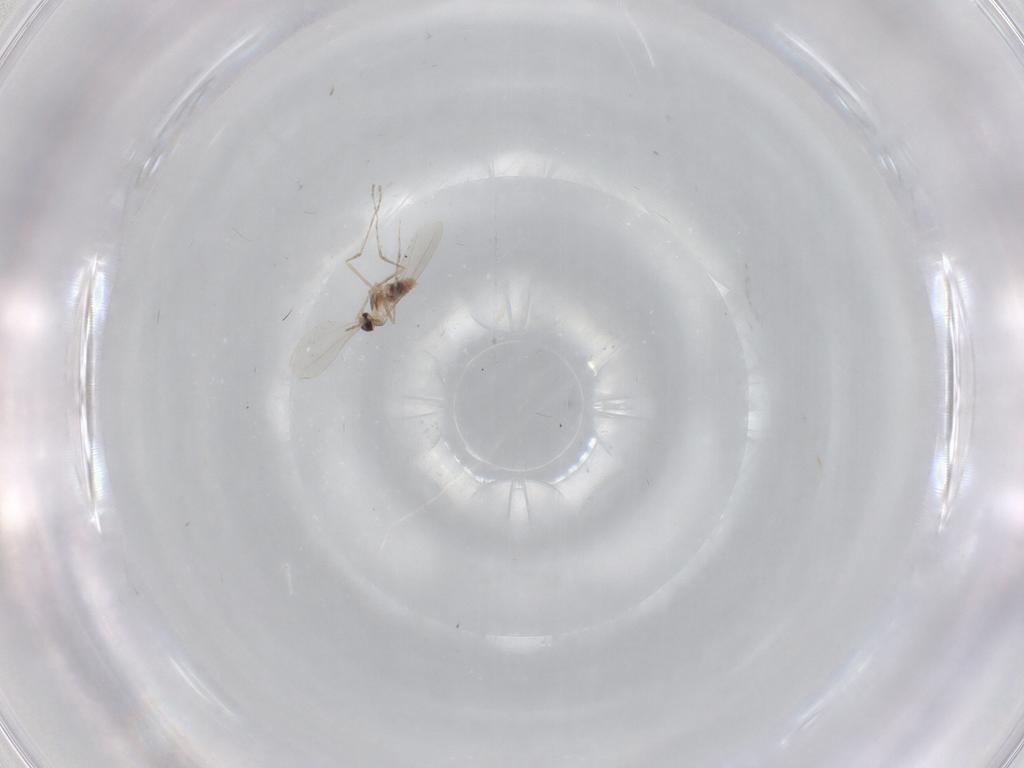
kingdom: Animalia
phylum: Arthropoda
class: Insecta
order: Diptera
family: Cecidomyiidae
